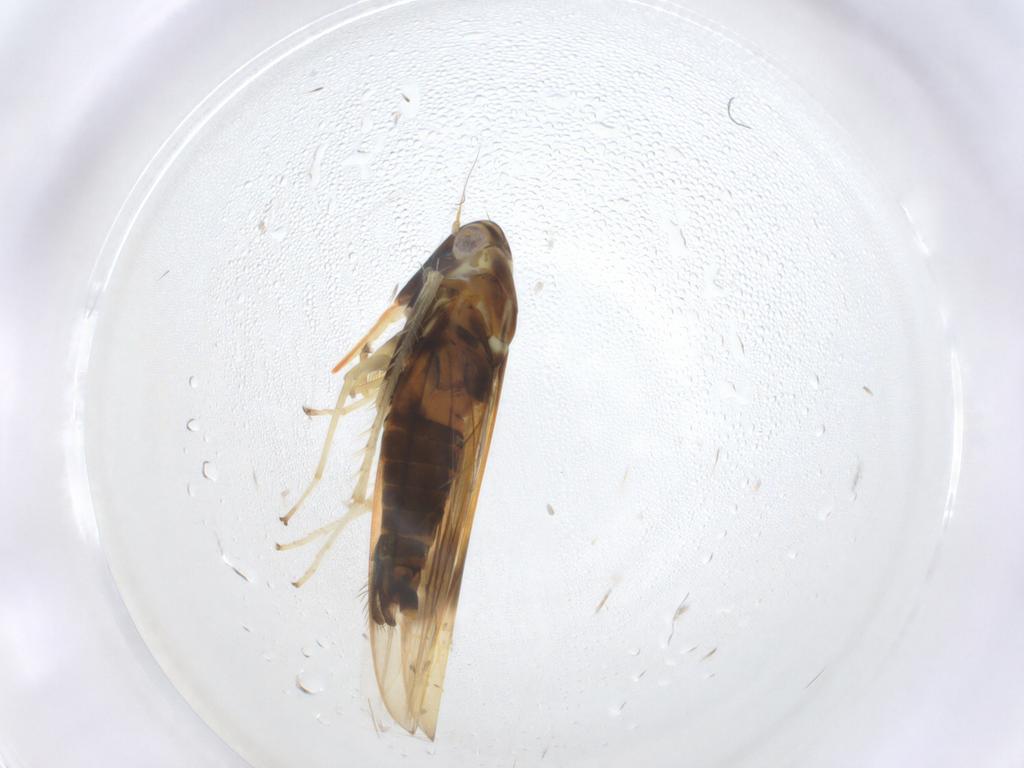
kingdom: Animalia
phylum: Arthropoda
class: Insecta
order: Hemiptera
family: Cicadellidae
